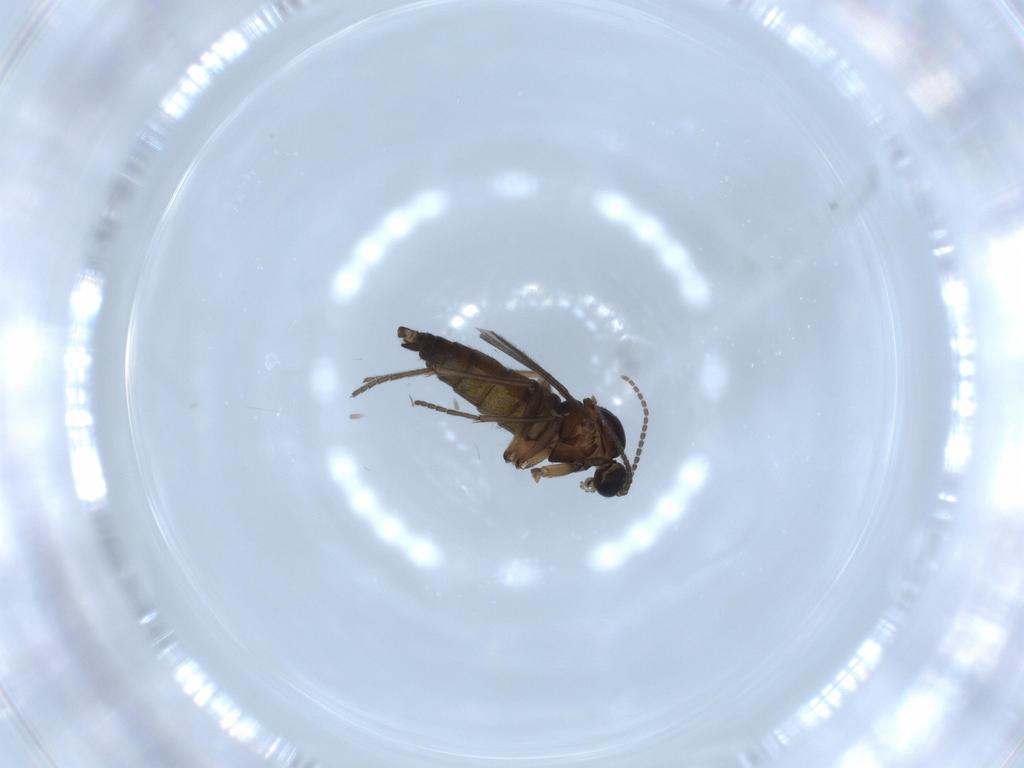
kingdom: Animalia
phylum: Arthropoda
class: Insecta
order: Diptera
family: Sciaridae
